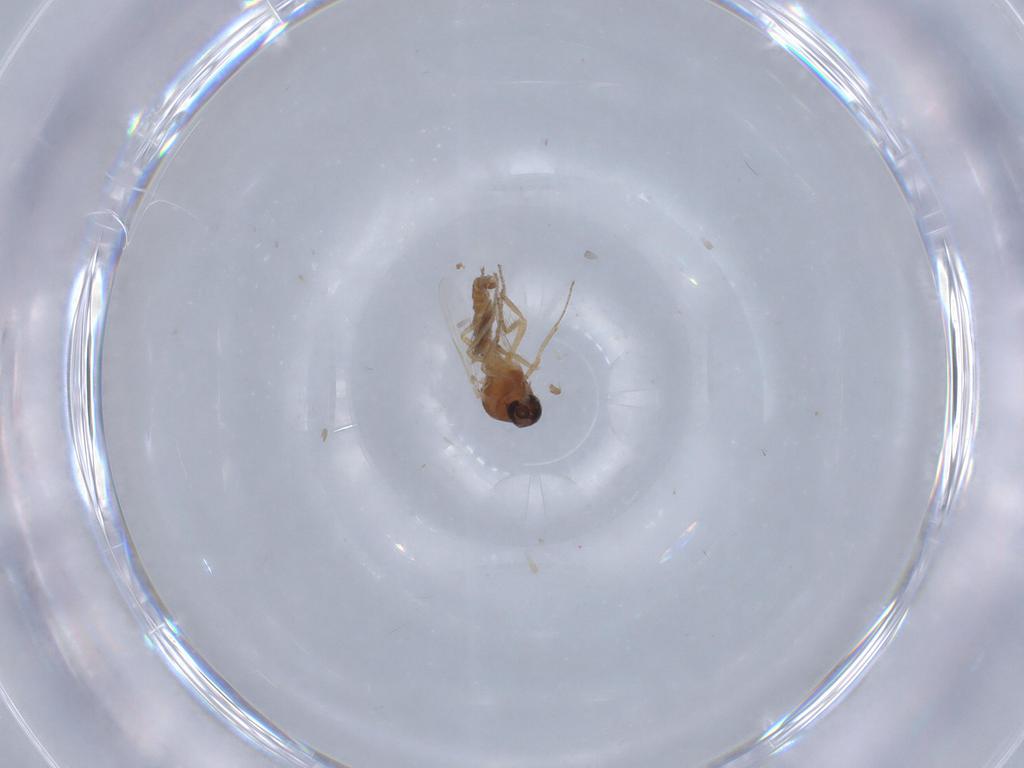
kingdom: Animalia
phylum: Arthropoda
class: Insecta
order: Diptera
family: Ceratopogonidae
